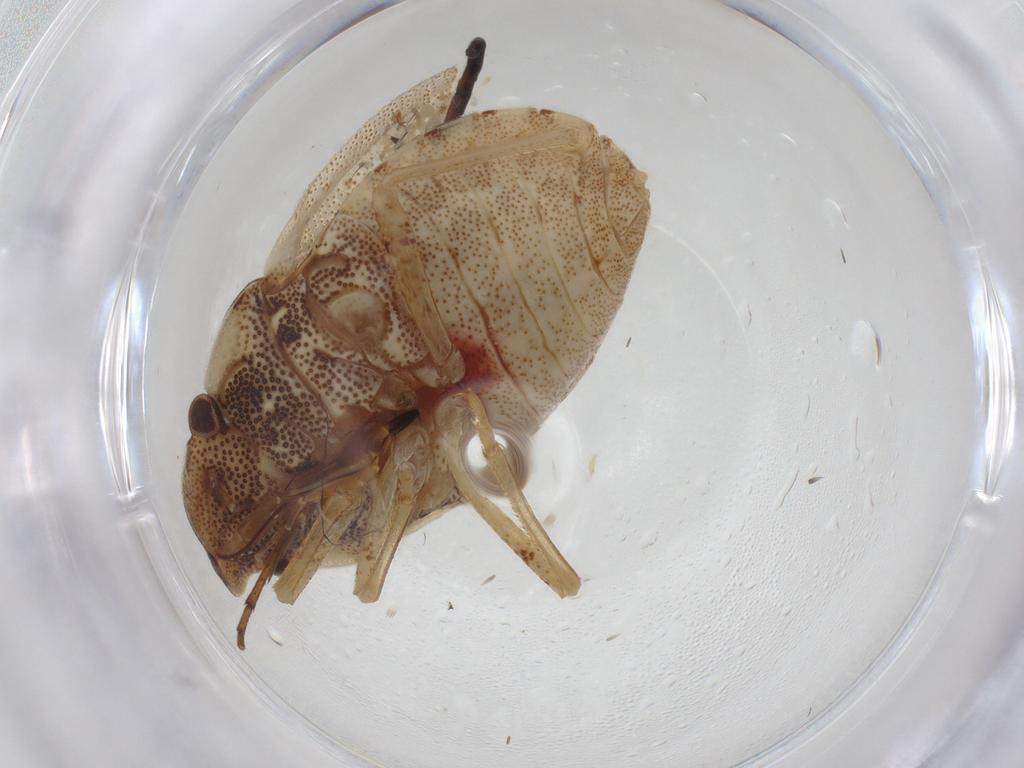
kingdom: Animalia
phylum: Arthropoda
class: Insecta
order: Hemiptera
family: Pentatomidae
